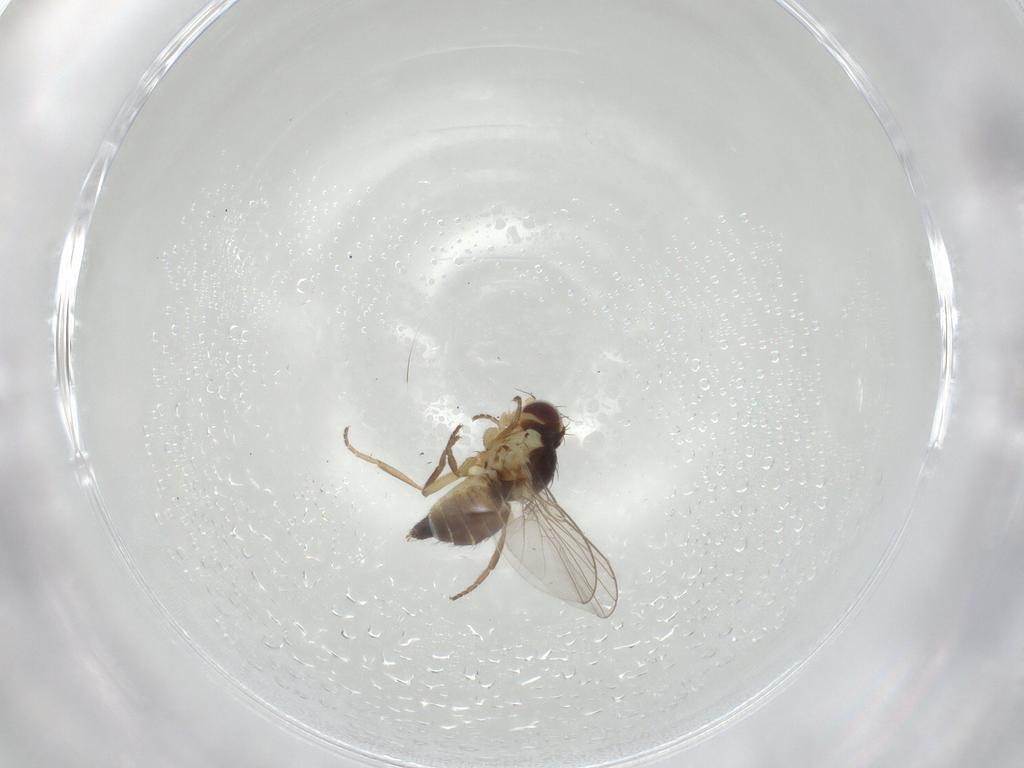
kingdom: Animalia
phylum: Arthropoda
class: Insecta
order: Diptera
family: Agromyzidae
